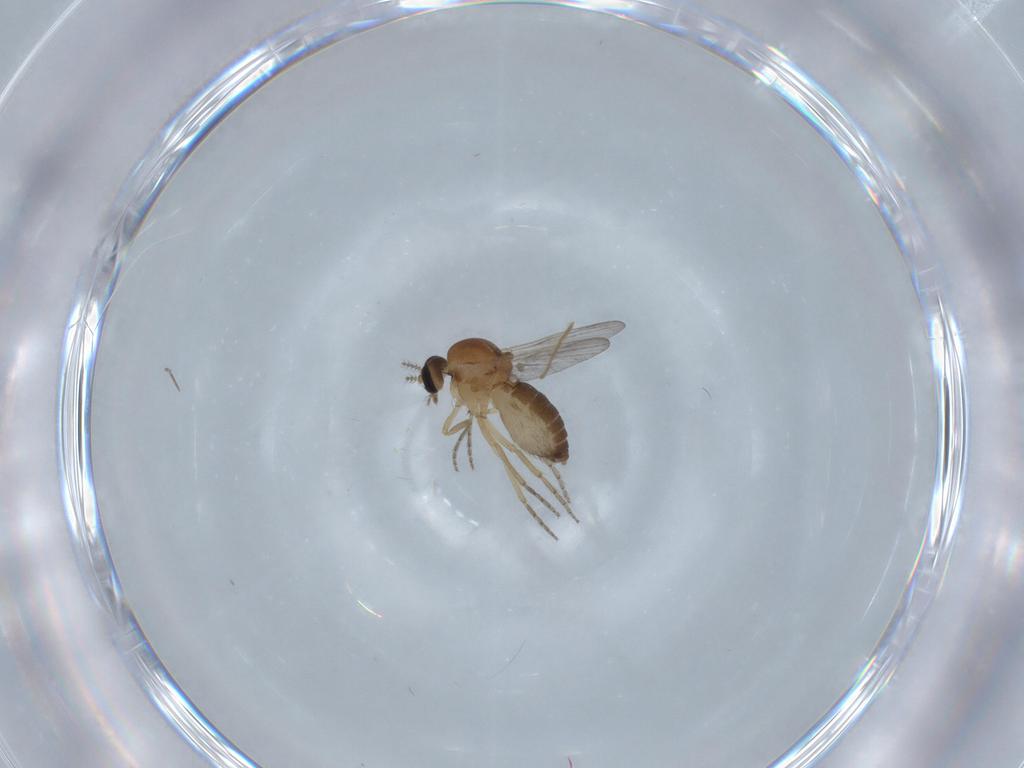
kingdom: Animalia
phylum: Arthropoda
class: Insecta
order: Diptera
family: Ceratopogonidae
